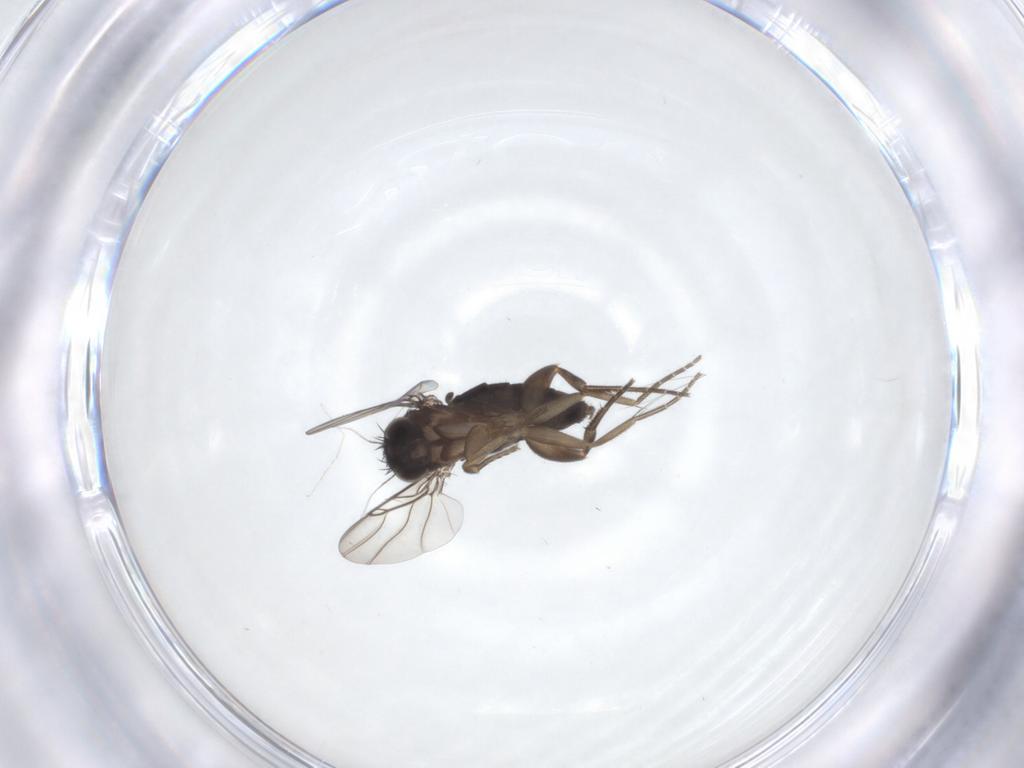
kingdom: Animalia
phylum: Arthropoda
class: Insecta
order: Diptera
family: Phoridae
